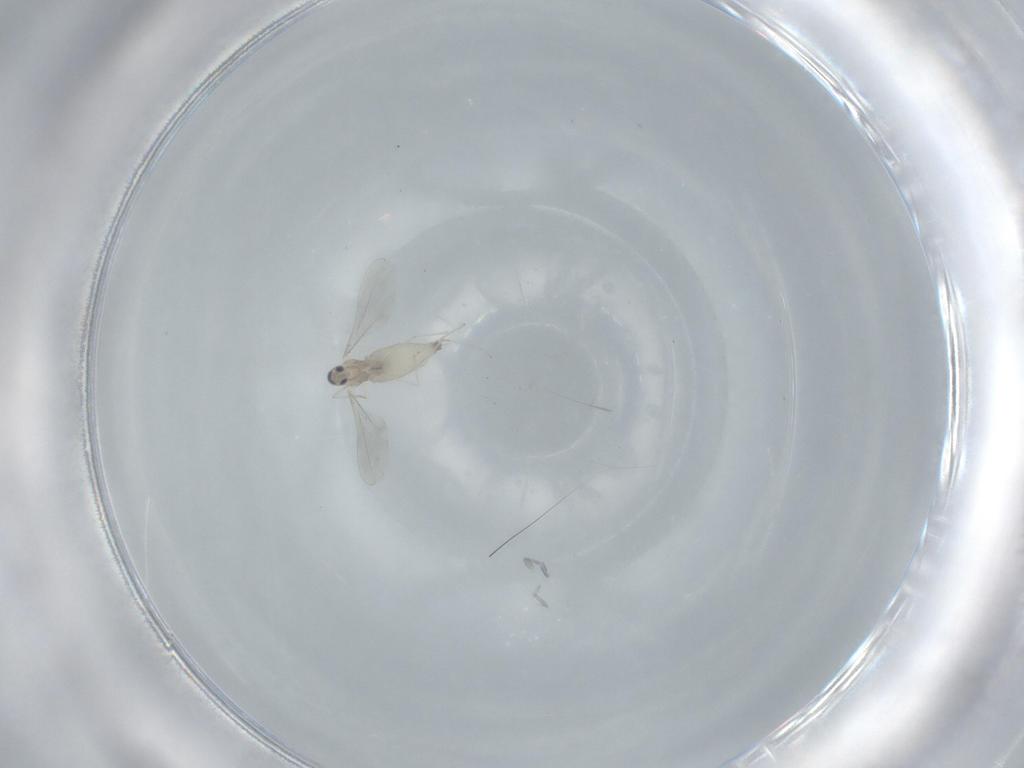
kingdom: Animalia
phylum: Arthropoda
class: Insecta
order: Diptera
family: Cecidomyiidae
